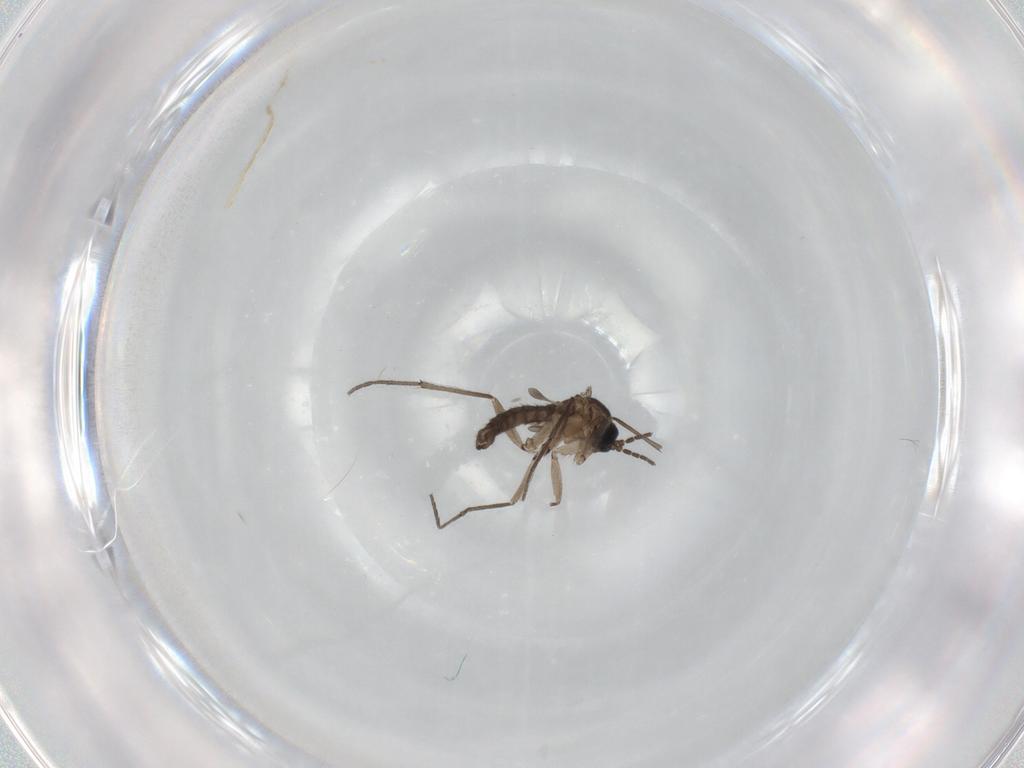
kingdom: Animalia
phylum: Arthropoda
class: Insecta
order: Diptera
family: Sciaridae
